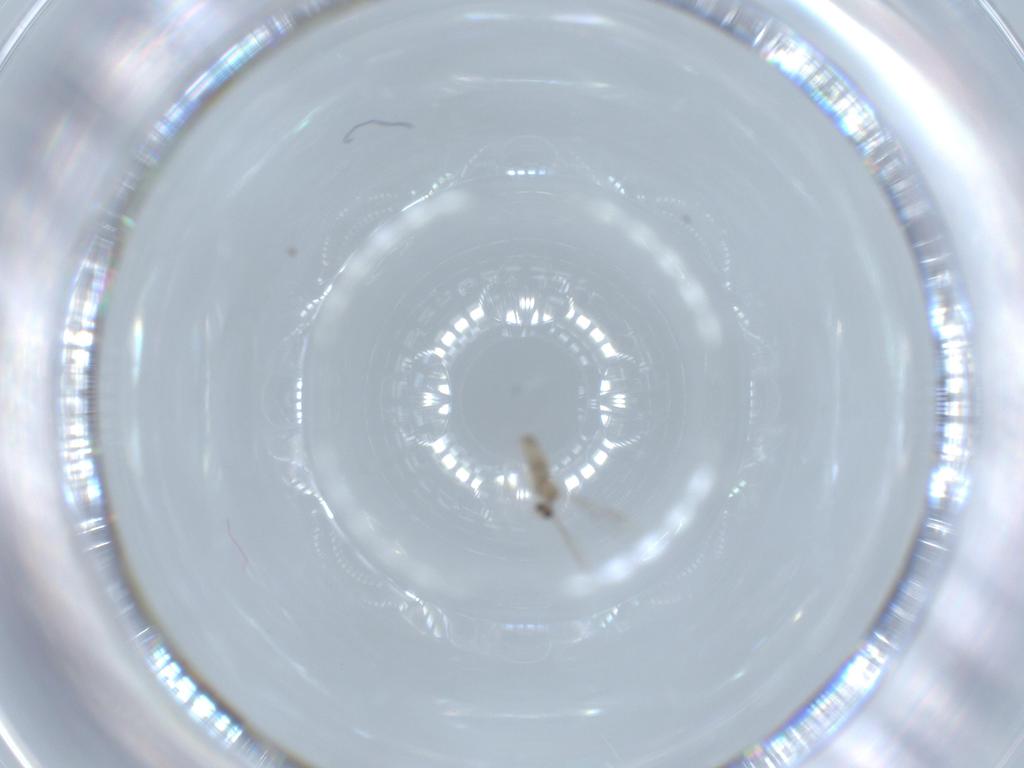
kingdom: Animalia
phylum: Arthropoda
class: Insecta
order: Diptera
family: Cecidomyiidae
